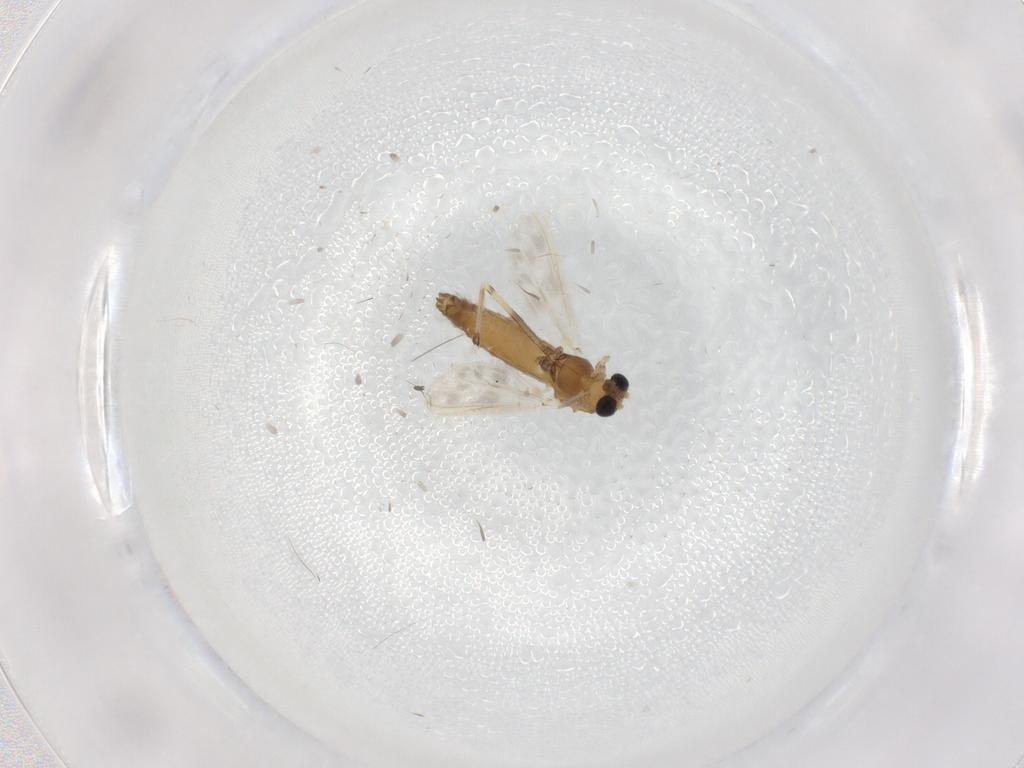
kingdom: Animalia
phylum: Arthropoda
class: Insecta
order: Diptera
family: Chironomidae
